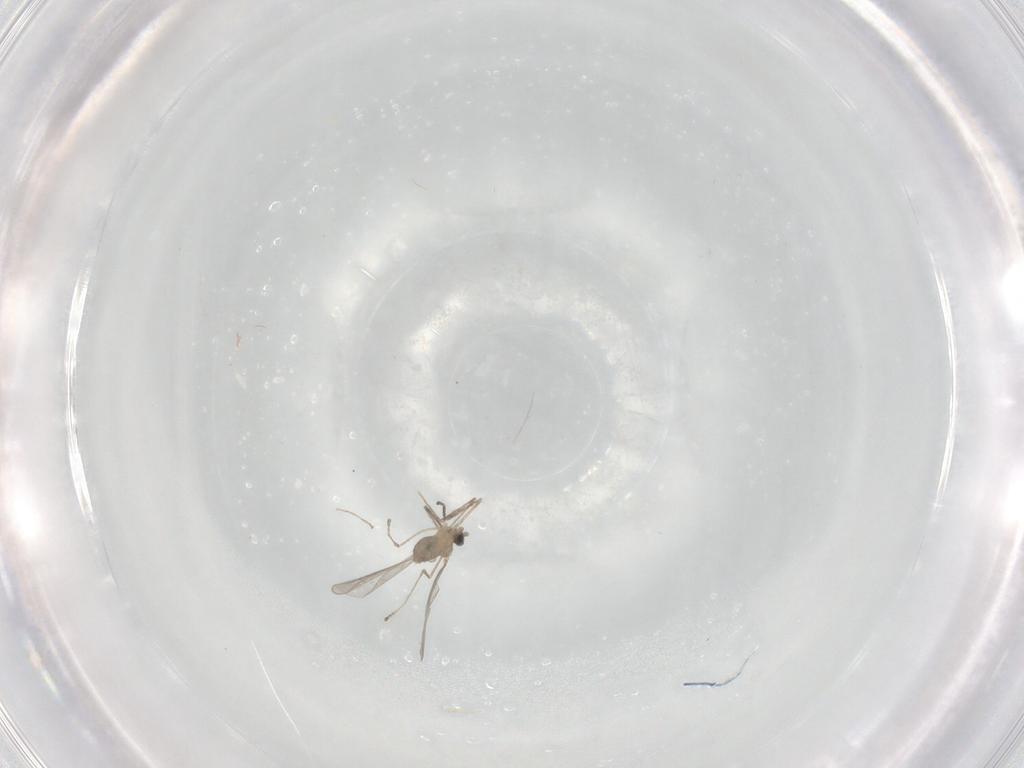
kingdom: Animalia
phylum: Arthropoda
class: Insecta
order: Diptera
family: Cecidomyiidae
